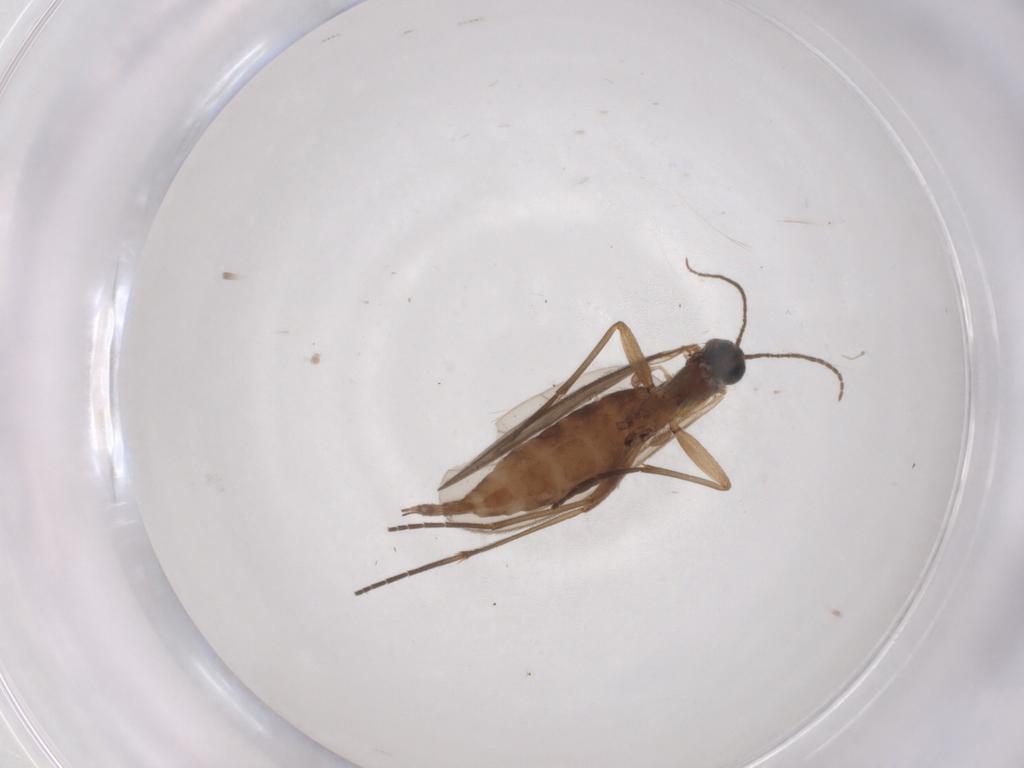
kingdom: Animalia
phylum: Arthropoda
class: Insecta
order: Diptera
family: Sciaridae
